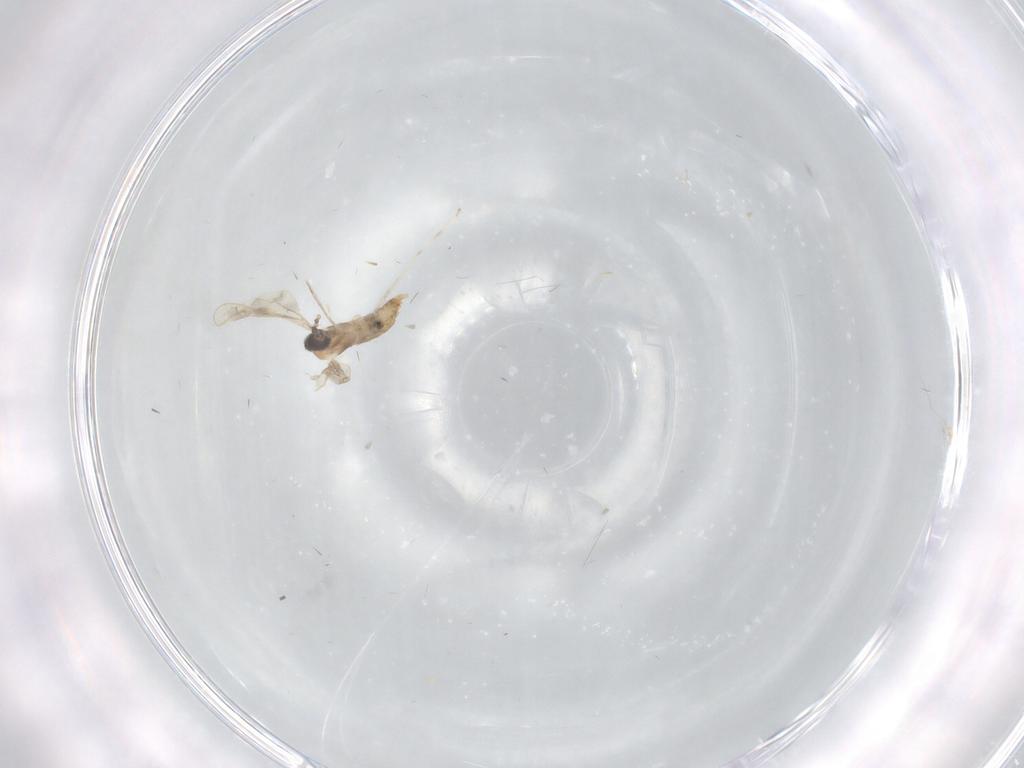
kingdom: Animalia
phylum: Arthropoda
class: Insecta
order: Diptera
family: Phoridae
